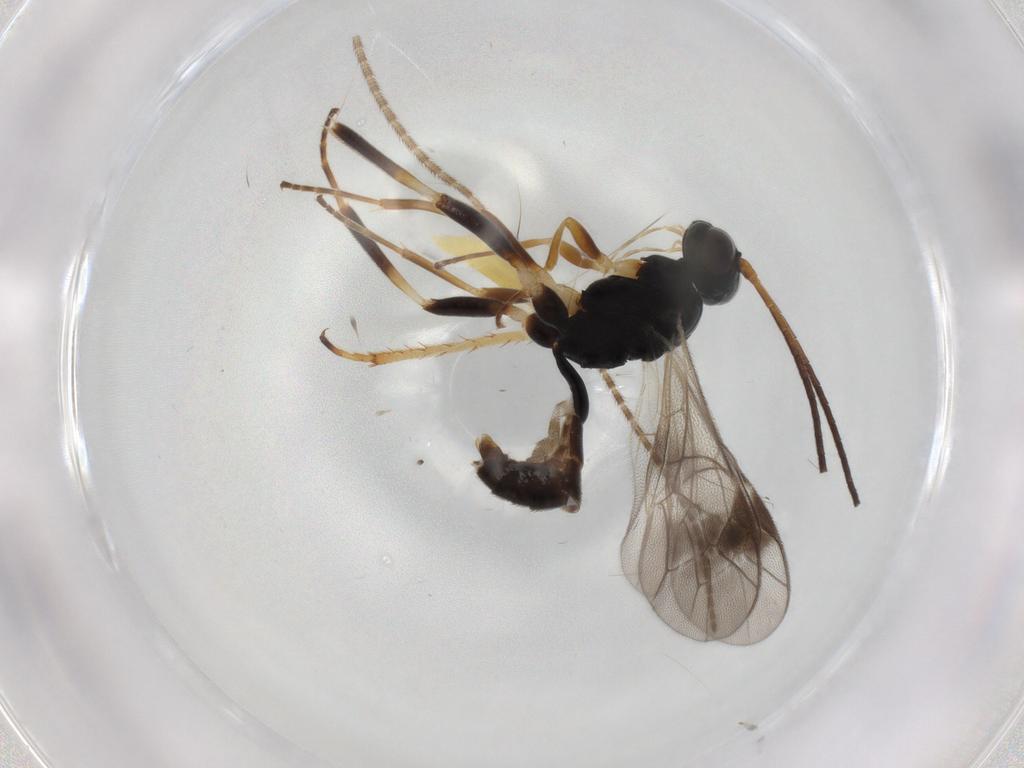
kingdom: Animalia
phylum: Arthropoda
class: Insecta
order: Hymenoptera
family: Ichneumonidae
